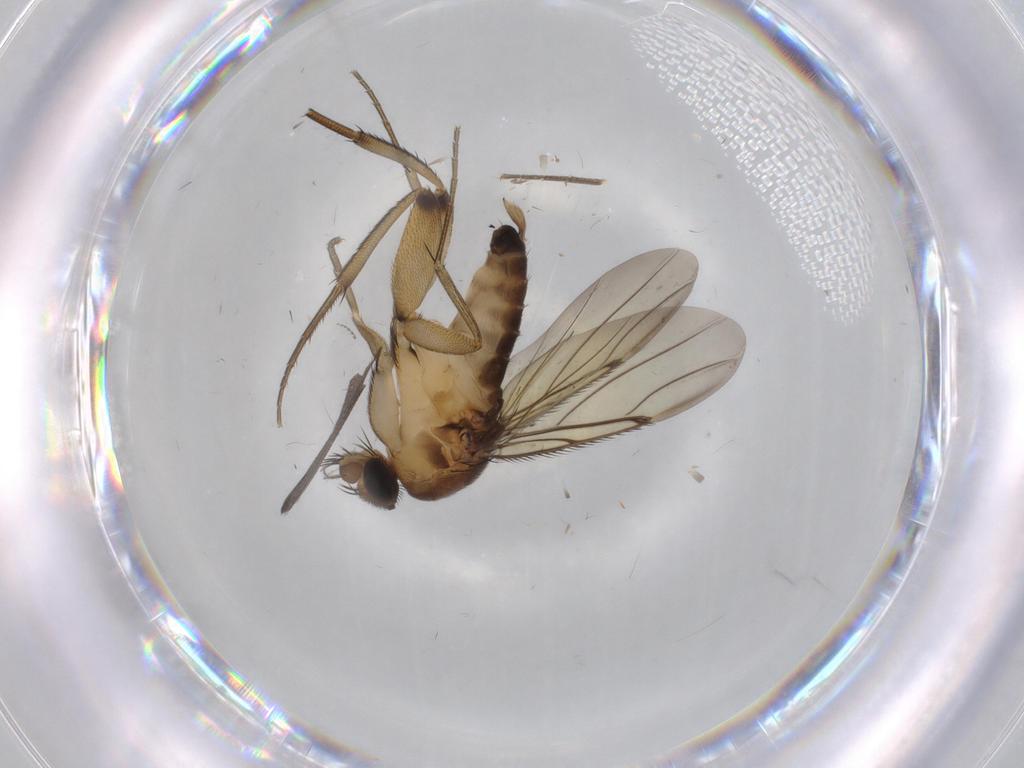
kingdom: Animalia
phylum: Arthropoda
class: Insecta
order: Diptera
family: Phoridae
